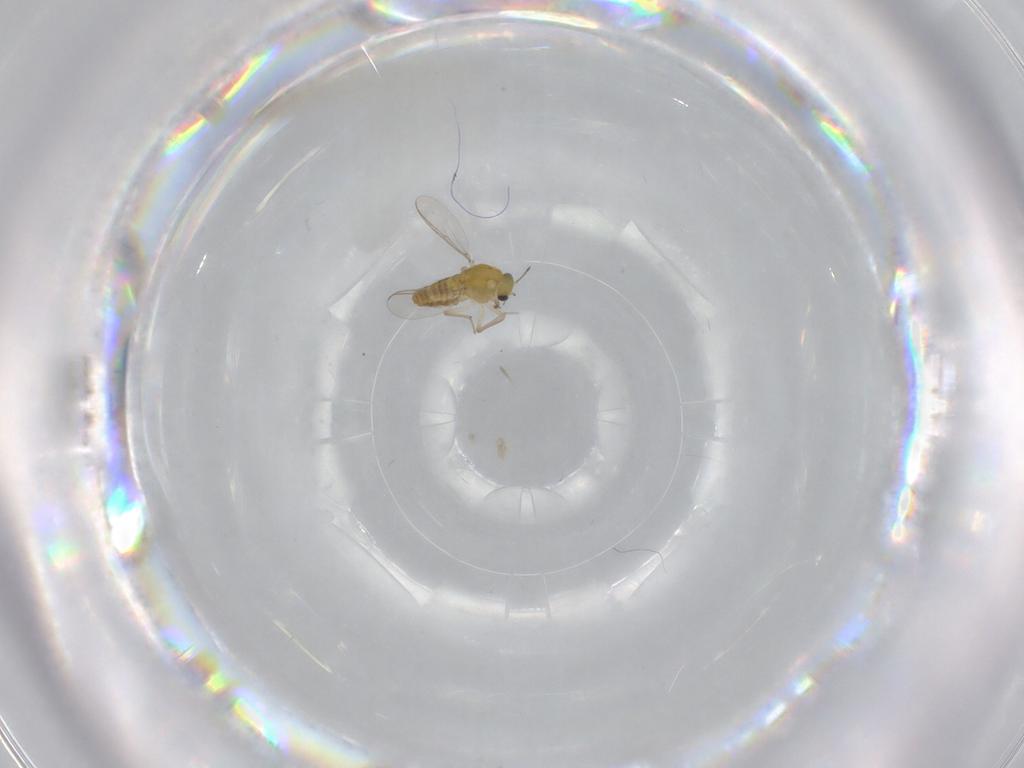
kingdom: Animalia
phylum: Arthropoda
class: Insecta
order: Diptera
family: Chironomidae
